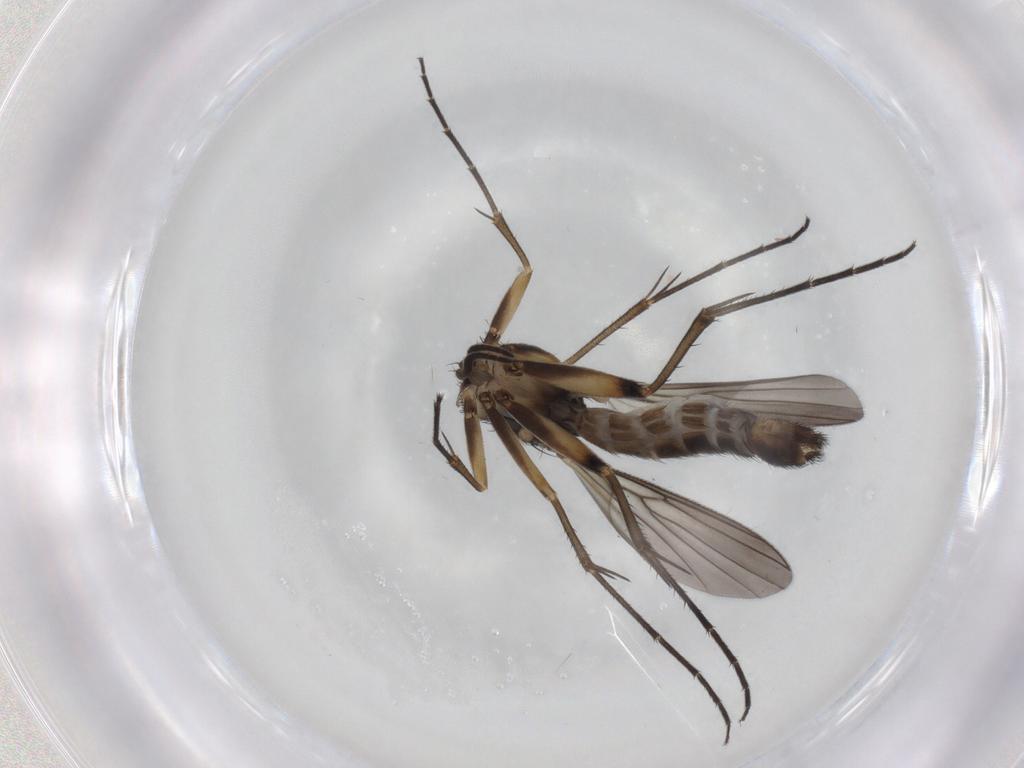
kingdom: Animalia
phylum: Arthropoda
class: Insecta
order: Diptera
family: Mycetophilidae
